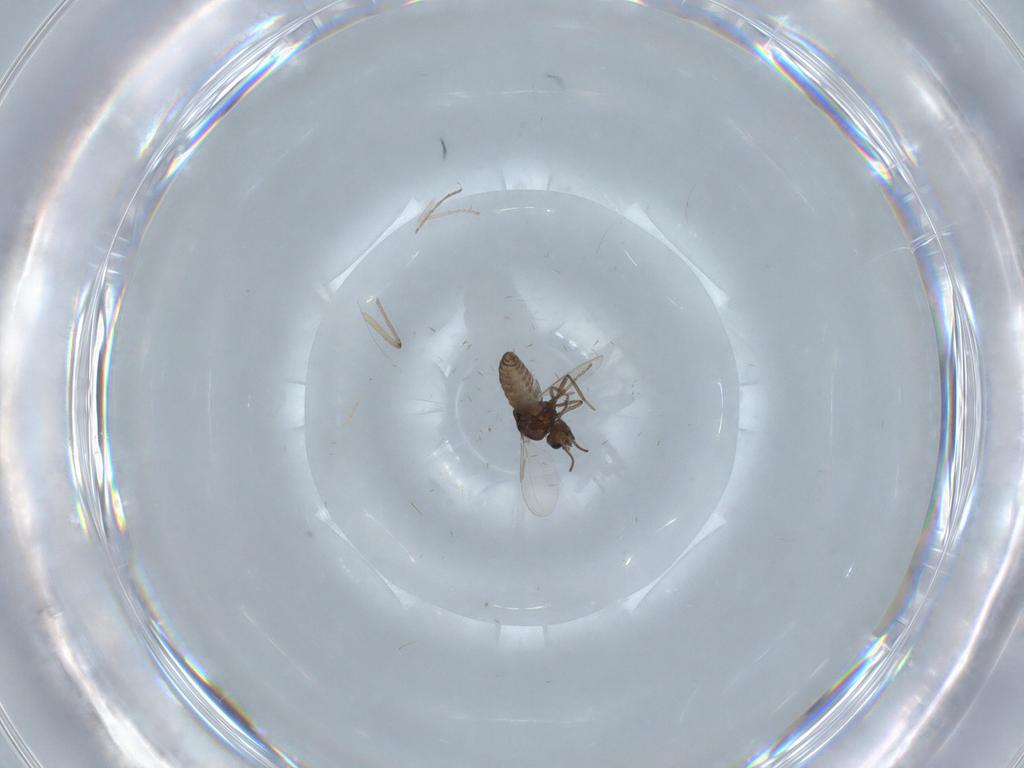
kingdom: Animalia
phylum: Arthropoda
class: Insecta
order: Diptera
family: Ceratopogonidae
